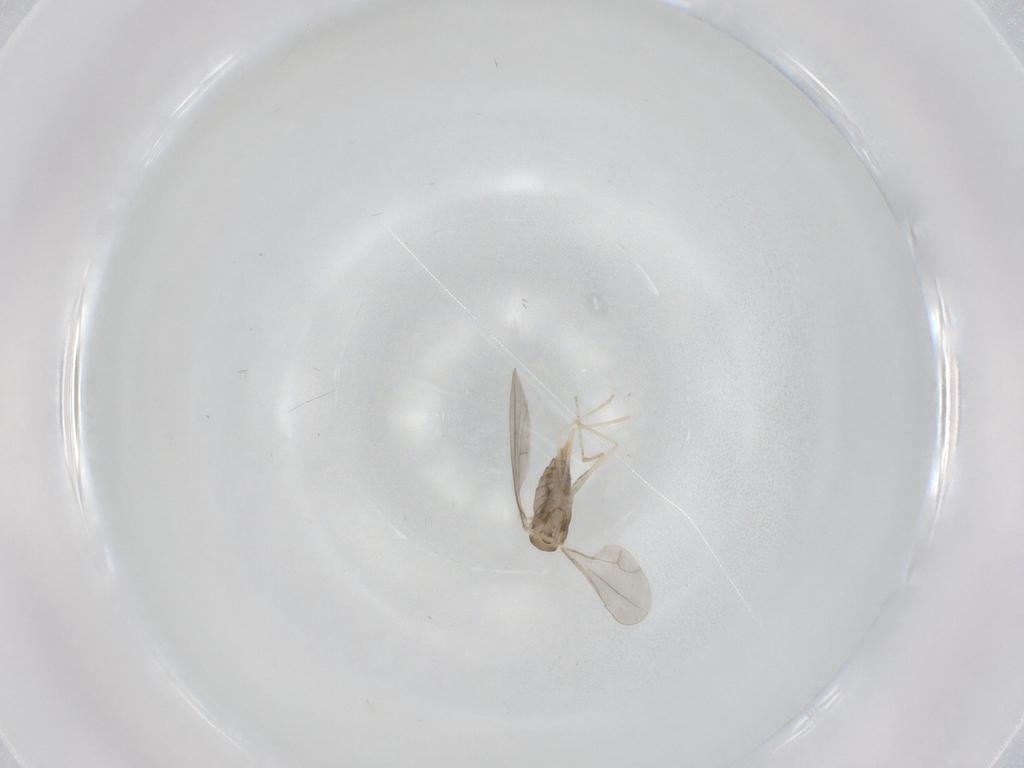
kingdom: Animalia
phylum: Arthropoda
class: Insecta
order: Diptera
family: Cecidomyiidae
